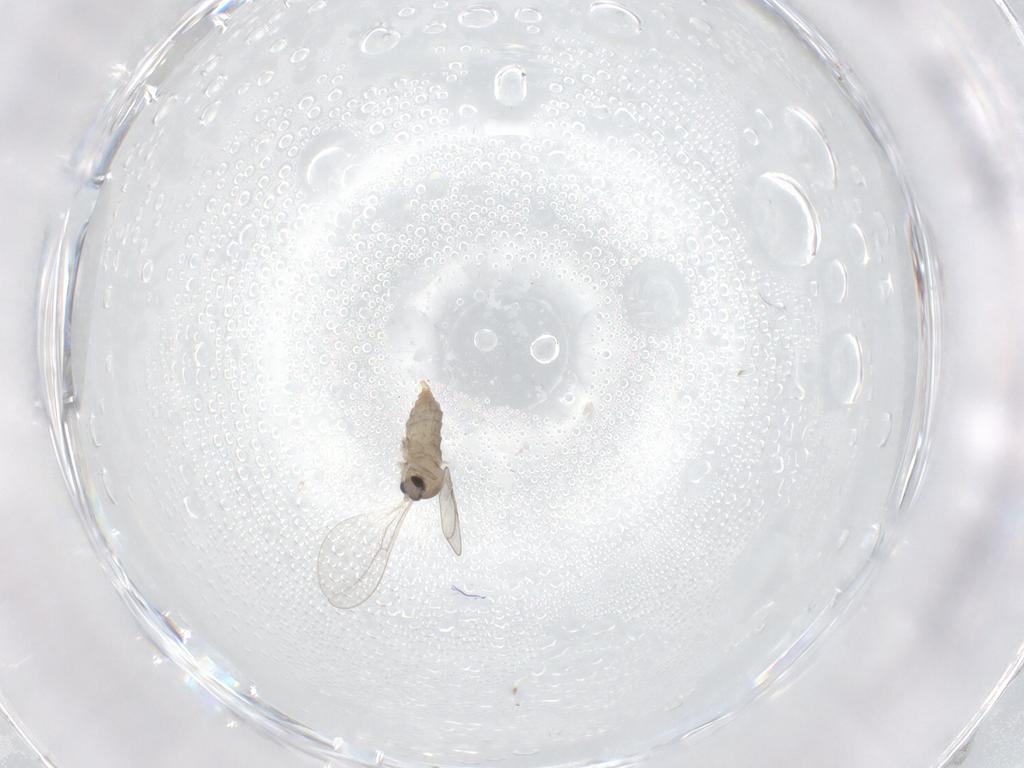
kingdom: Animalia
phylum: Arthropoda
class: Insecta
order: Diptera
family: Cecidomyiidae
